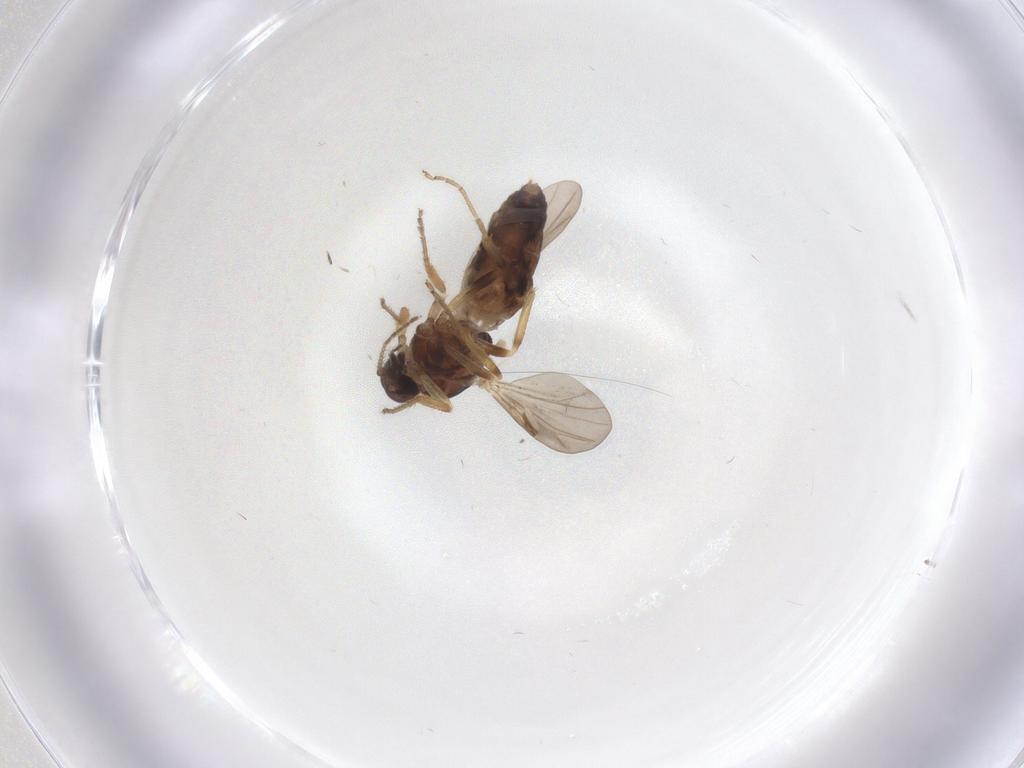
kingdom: Animalia
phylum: Arthropoda
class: Insecta
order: Diptera
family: Ceratopogonidae
